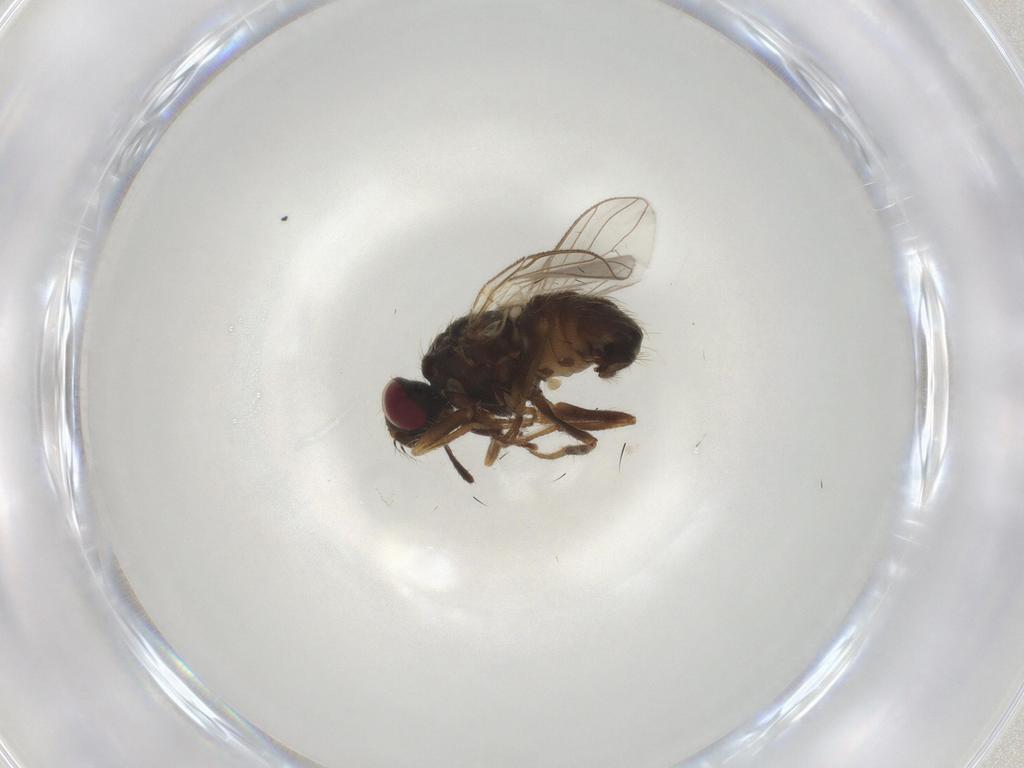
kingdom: Animalia
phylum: Arthropoda
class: Insecta
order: Diptera
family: Muscidae
